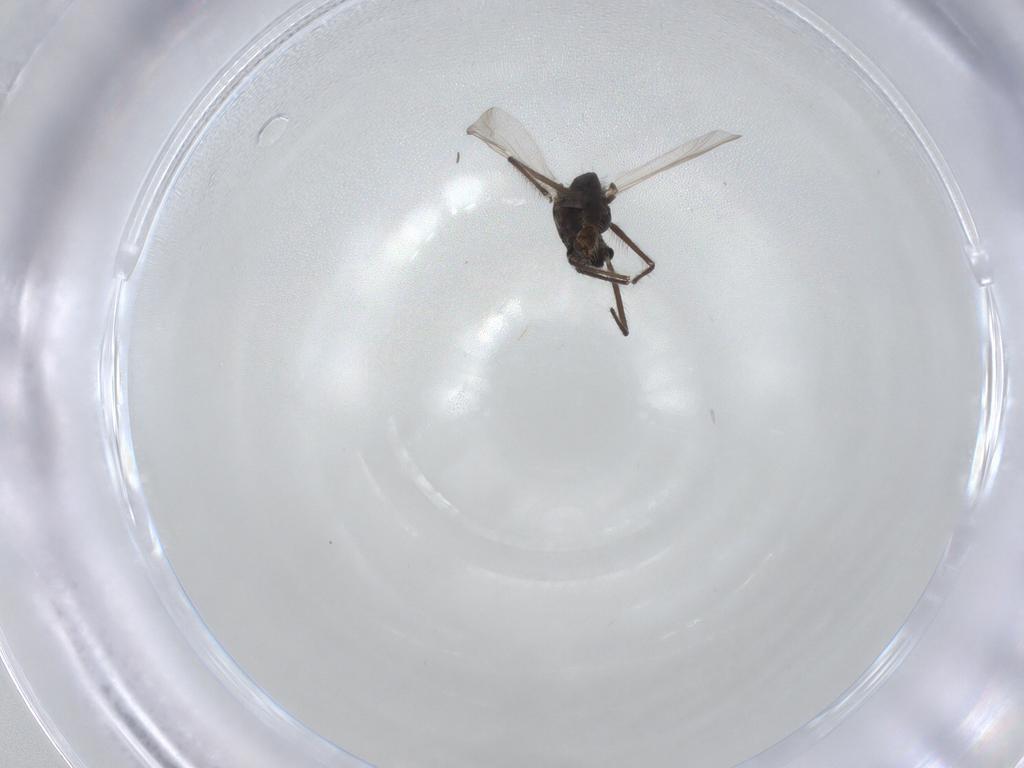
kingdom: Animalia
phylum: Arthropoda
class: Insecta
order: Diptera
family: Chironomidae
